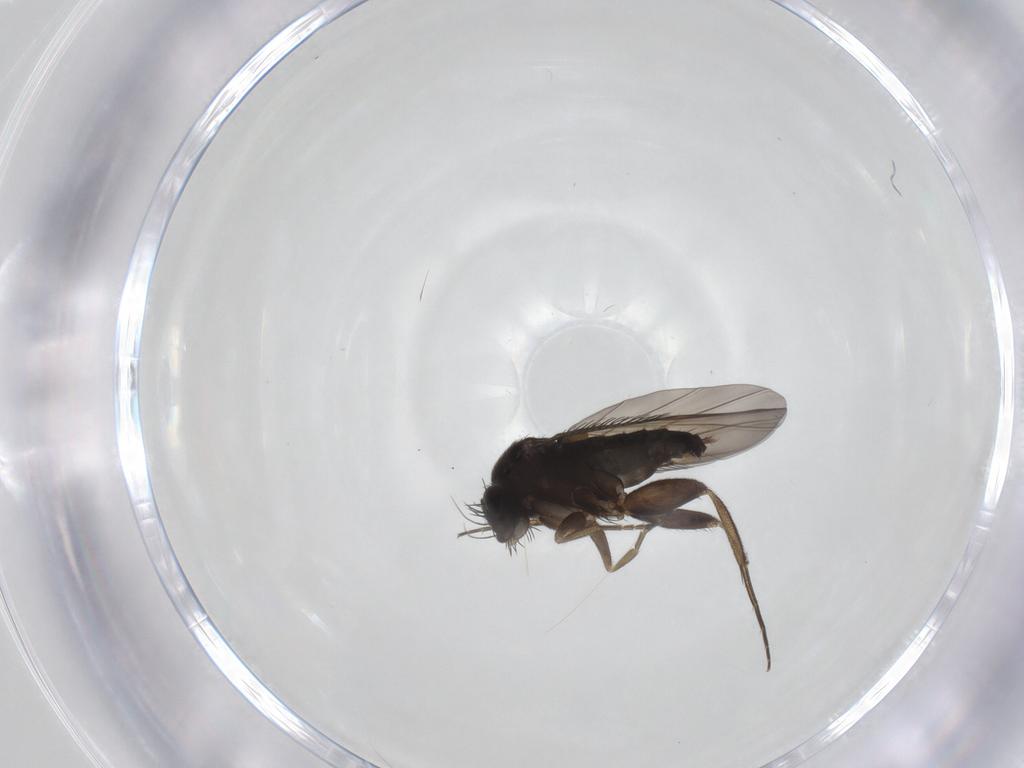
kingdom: Animalia
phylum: Arthropoda
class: Insecta
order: Diptera
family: Phoridae
